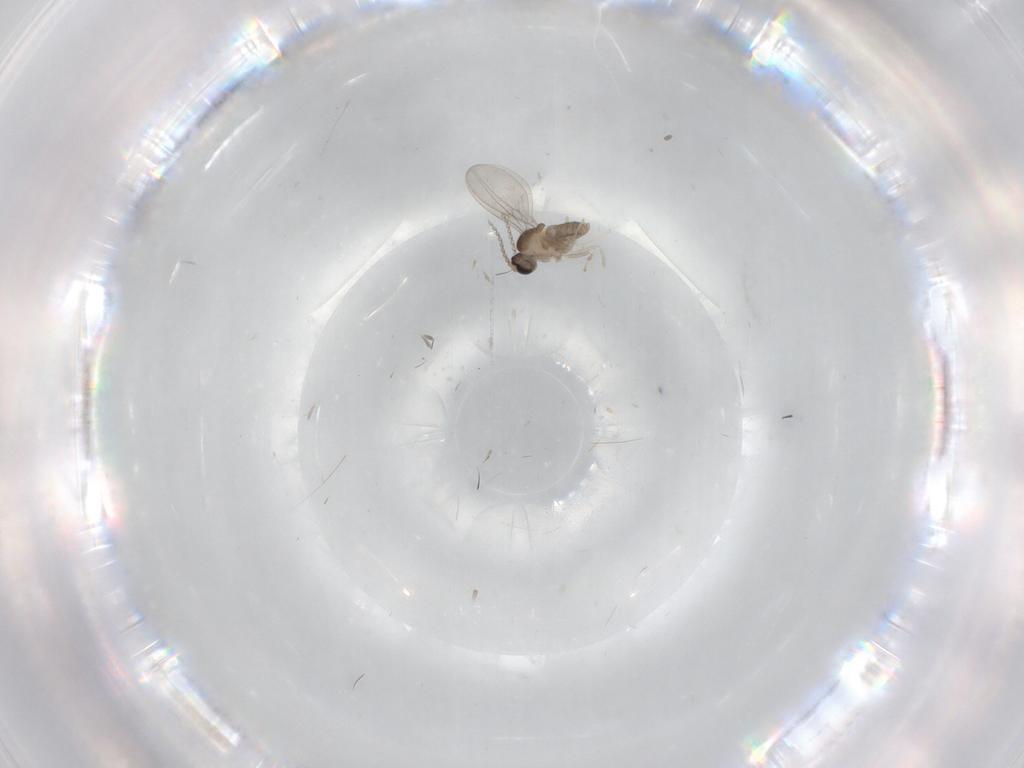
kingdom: Animalia
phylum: Arthropoda
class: Insecta
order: Diptera
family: Cecidomyiidae
